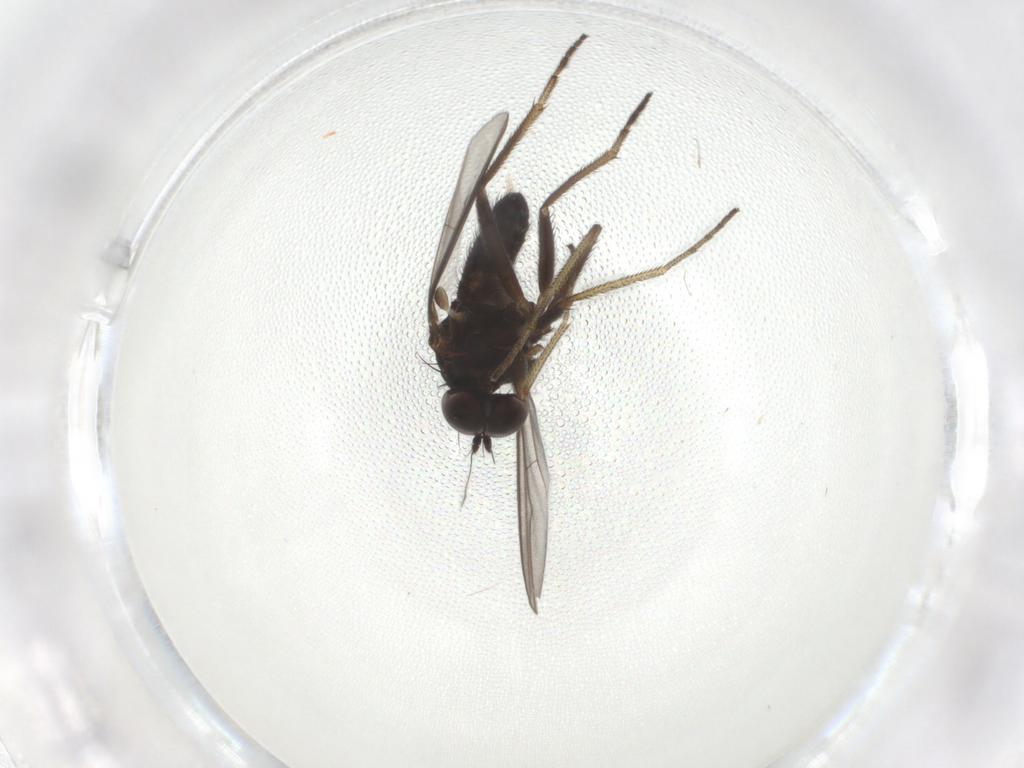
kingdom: Animalia
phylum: Arthropoda
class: Insecta
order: Diptera
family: Dolichopodidae
